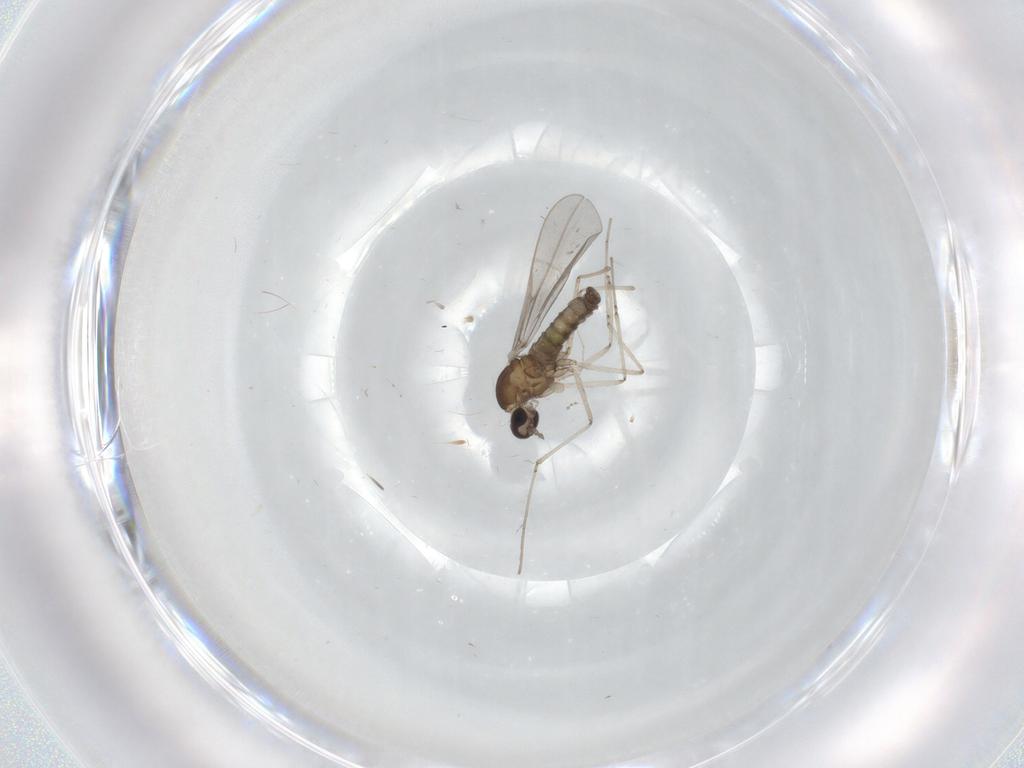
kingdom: Animalia
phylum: Arthropoda
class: Insecta
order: Diptera
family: Cecidomyiidae
